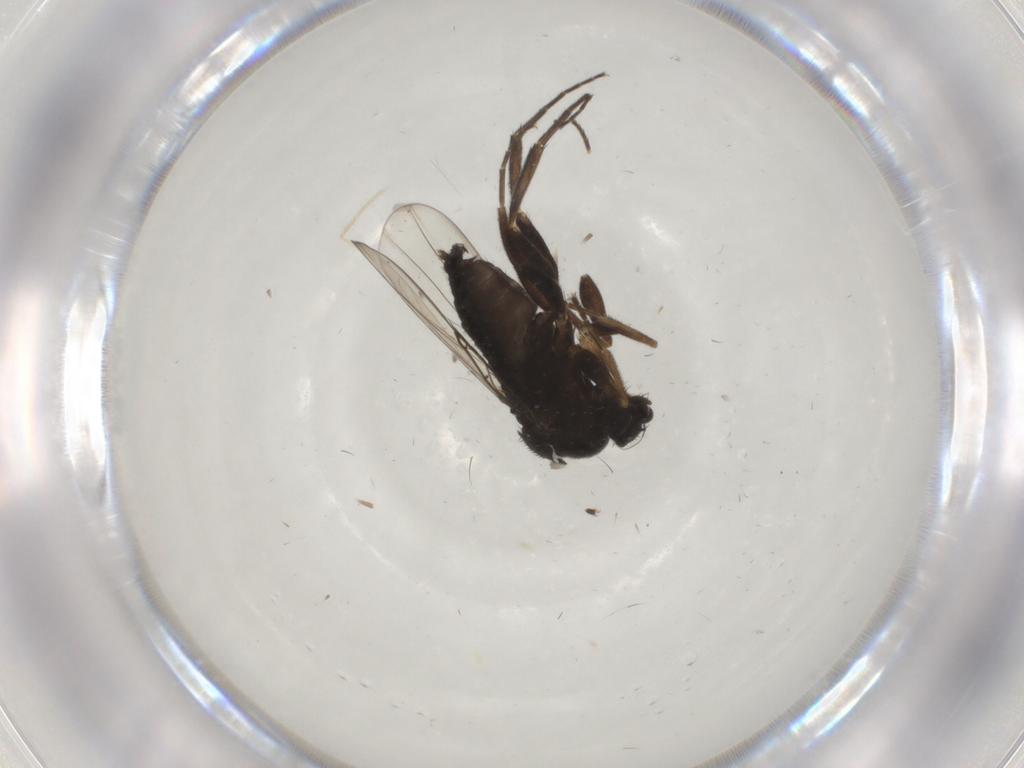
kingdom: Animalia
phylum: Arthropoda
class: Insecta
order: Diptera
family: Phoridae
